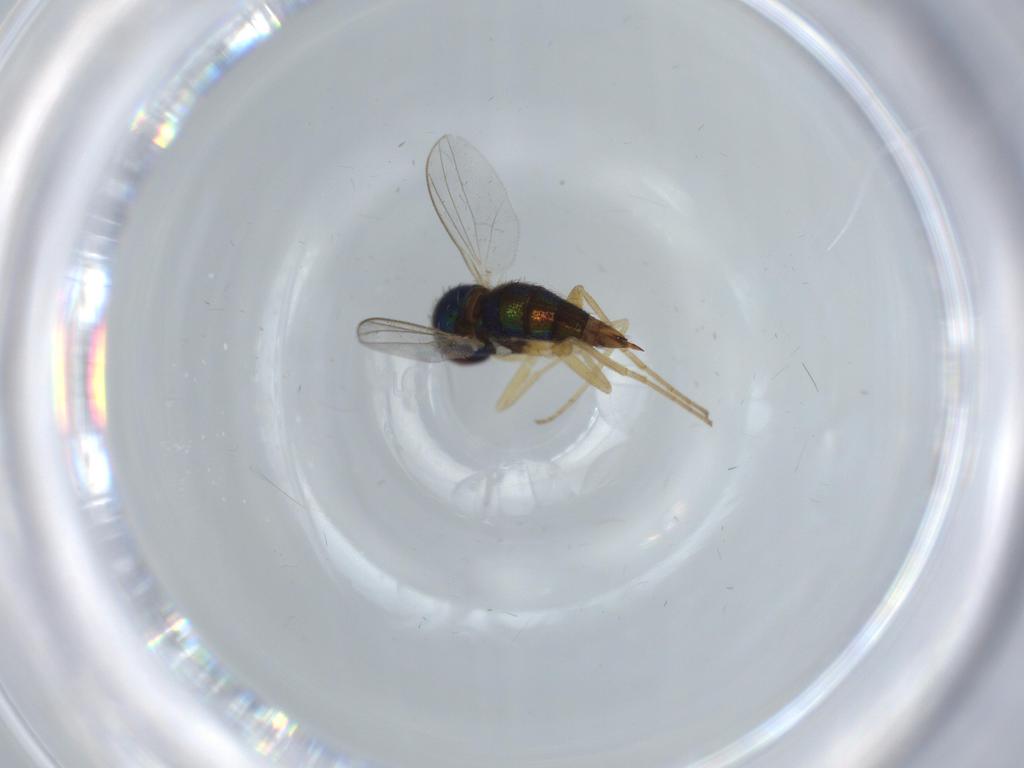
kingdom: Animalia
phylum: Arthropoda
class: Insecta
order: Diptera
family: Dolichopodidae
